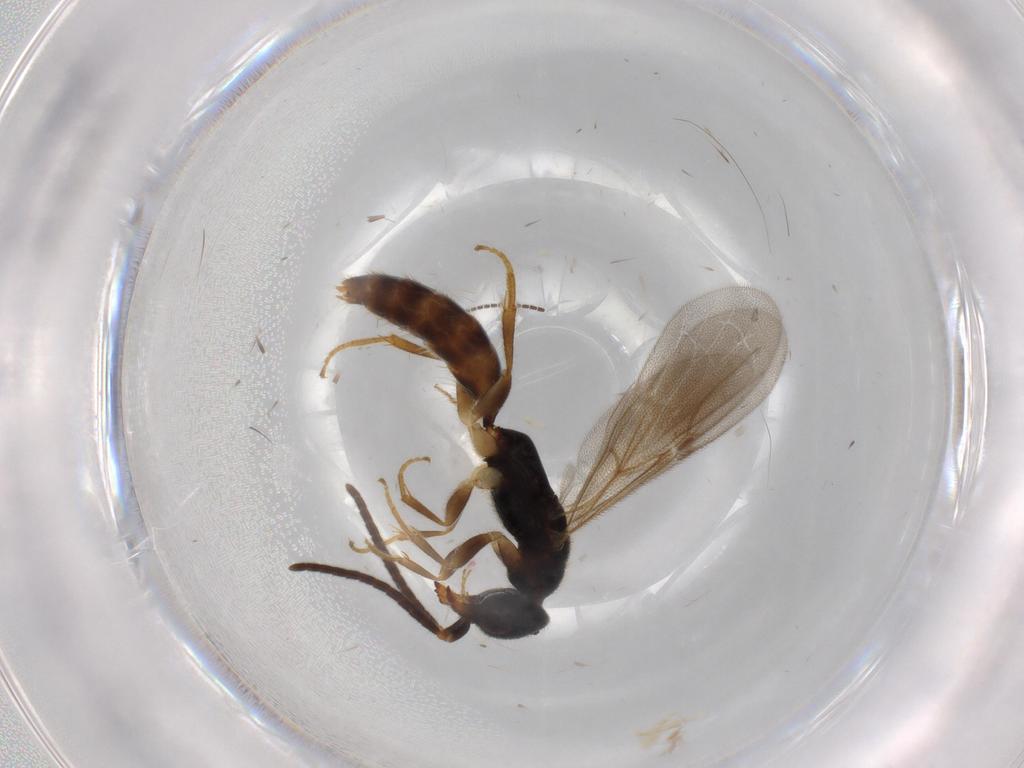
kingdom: Animalia
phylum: Arthropoda
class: Insecta
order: Hymenoptera
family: Bethylidae
